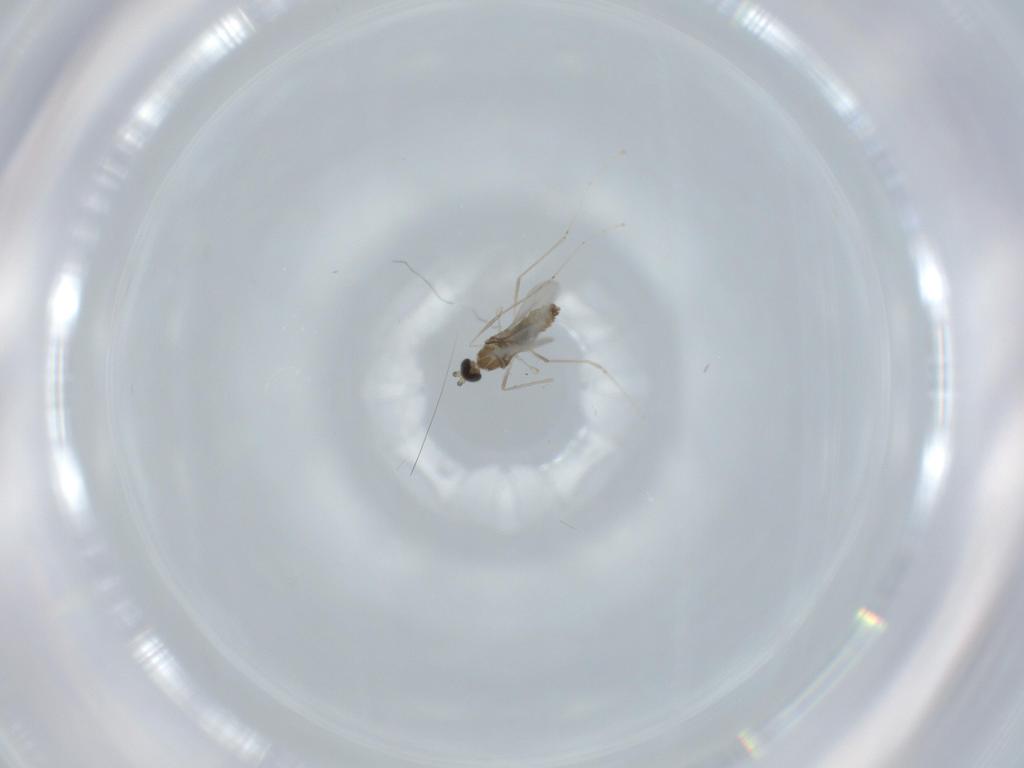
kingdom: Animalia
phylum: Arthropoda
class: Insecta
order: Diptera
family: Cecidomyiidae
